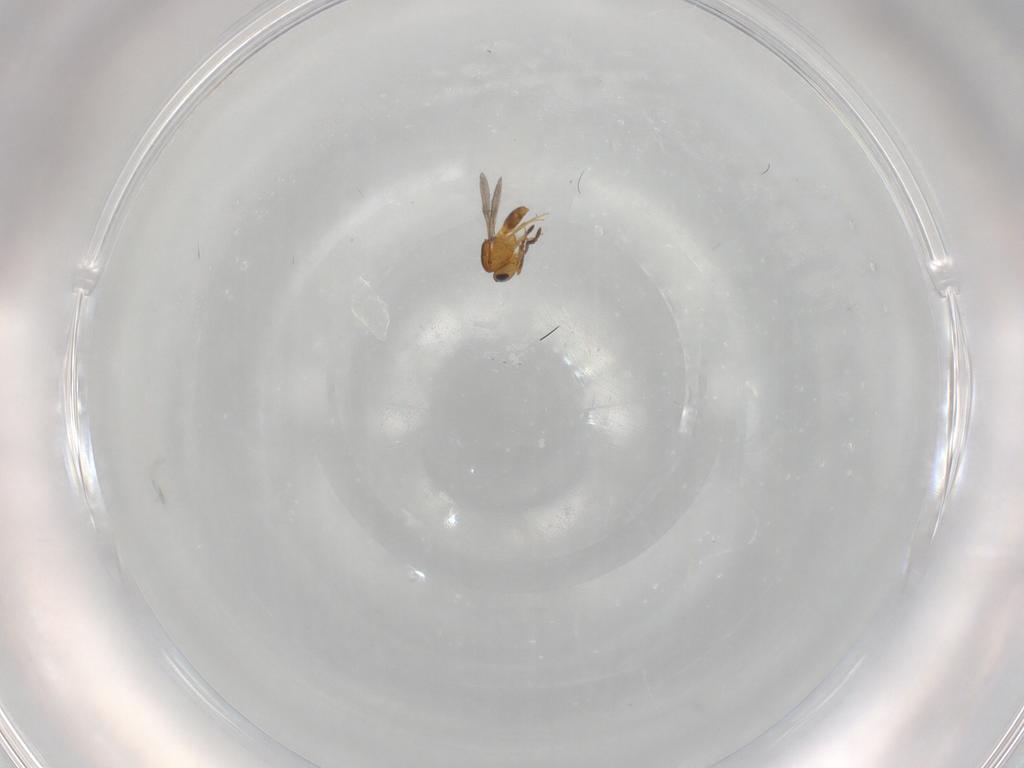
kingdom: Animalia
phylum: Arthropoda
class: Insecta
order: Hymenoptera
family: Scelionidae
